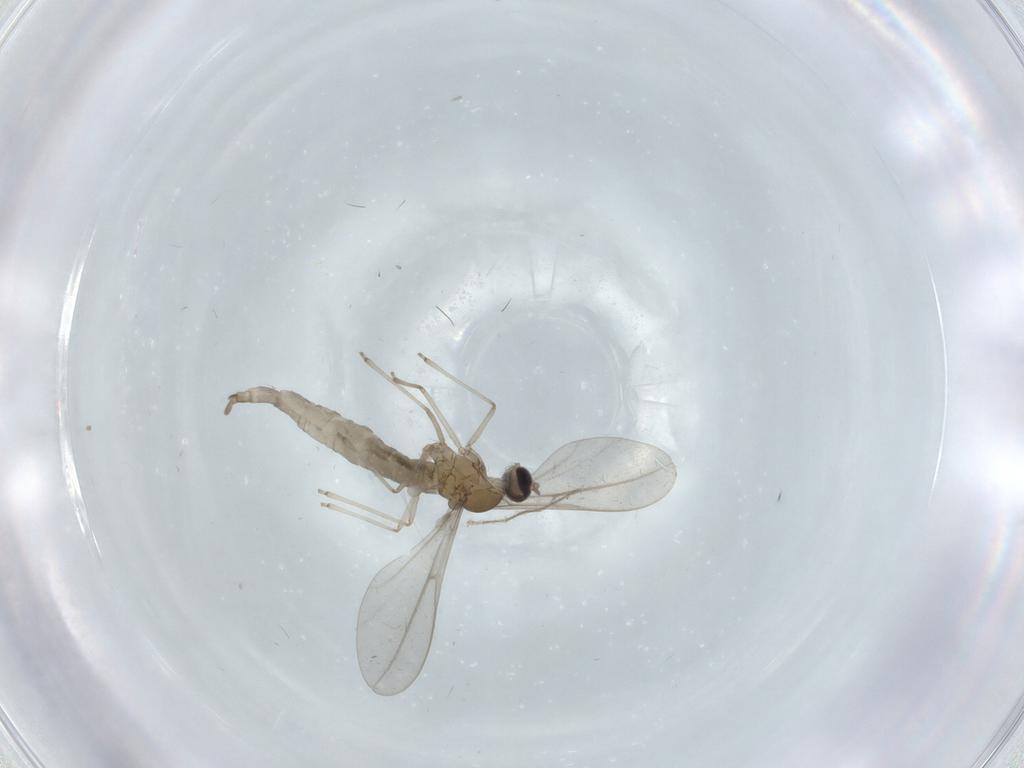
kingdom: Animalia
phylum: Arthropoda
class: Insecta
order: Diptera
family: Chironomidae
